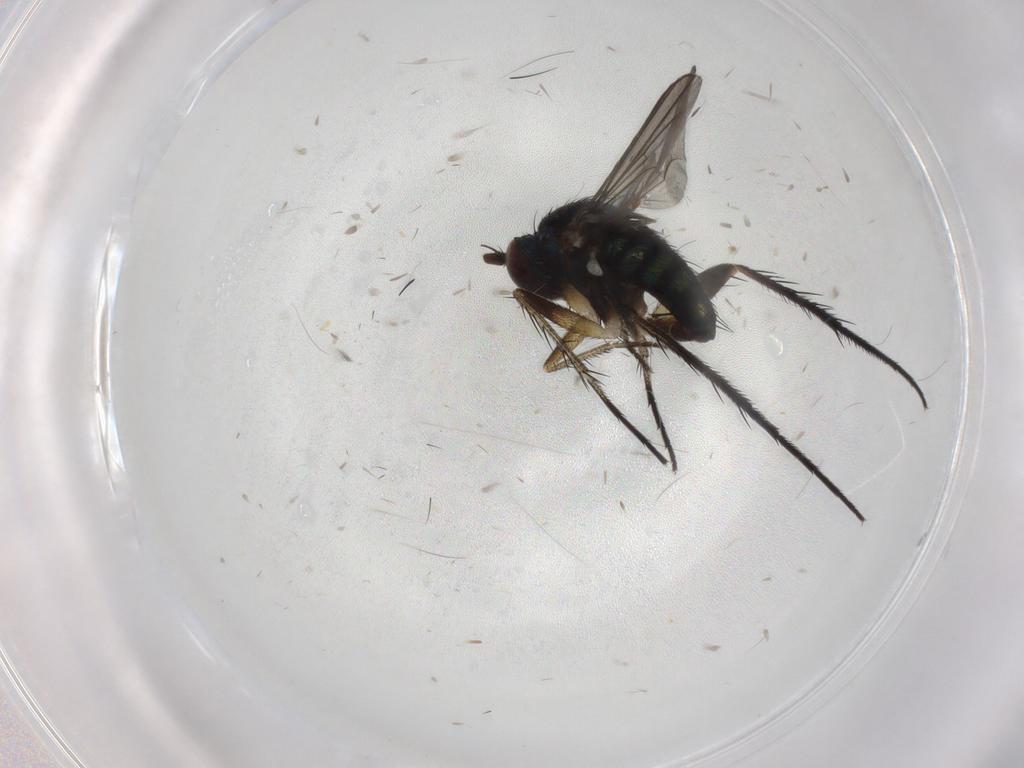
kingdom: Animalia
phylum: Arthropoda
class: Insecta
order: Diptera
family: Dolichopodidae
